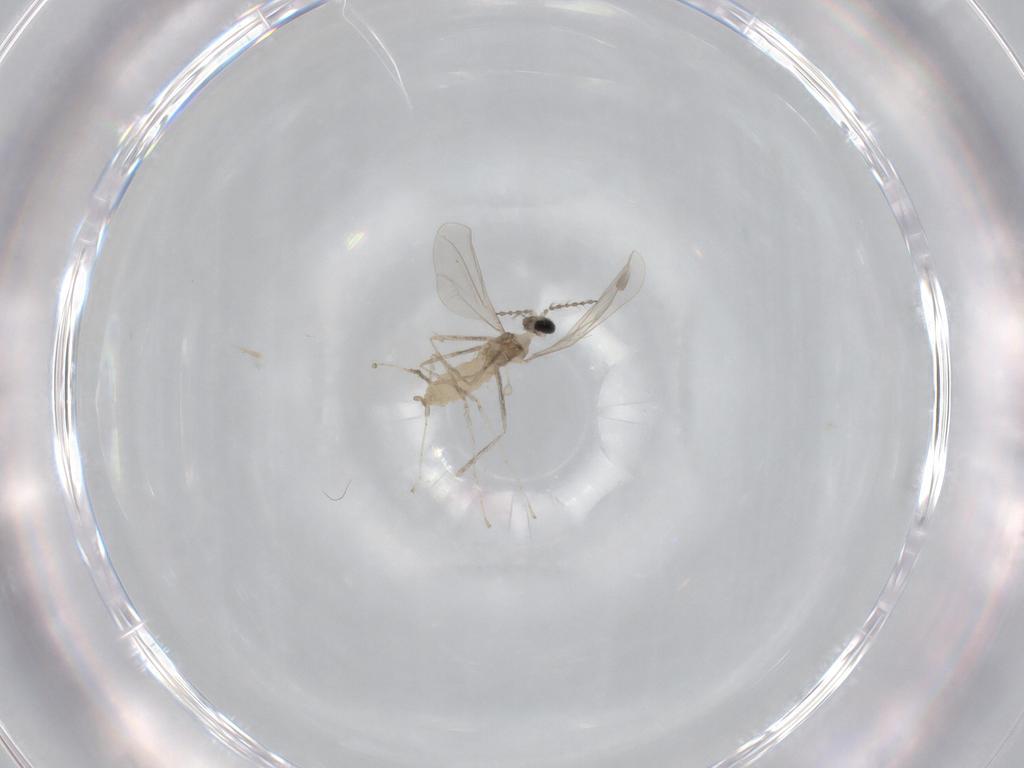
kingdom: Animalia
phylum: Arthropoda
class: Insecta
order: Diptera
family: Cecidomyiidae
